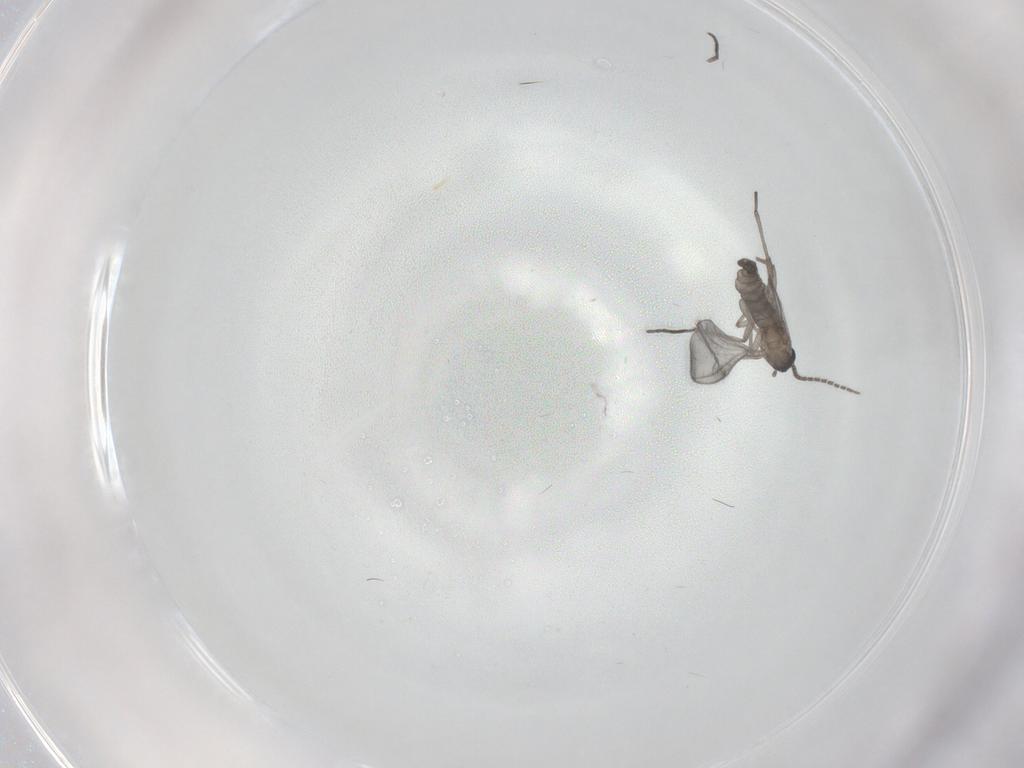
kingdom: Animalia
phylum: Arthropoda
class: Insecta
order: Diptera
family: Sciaridae
